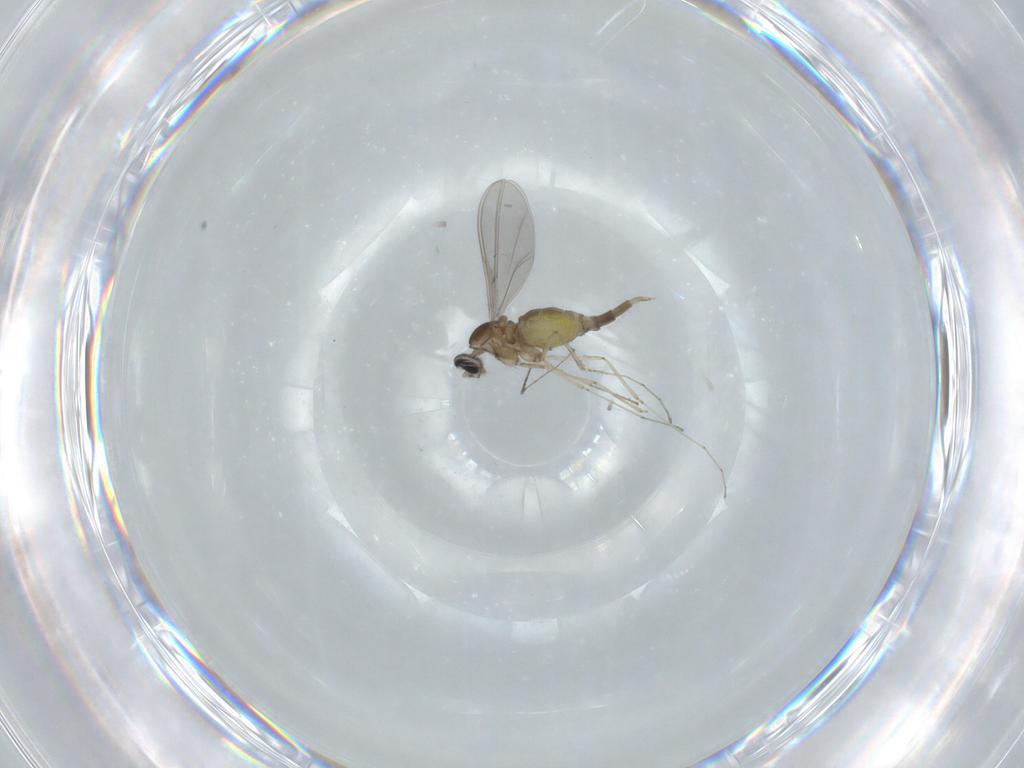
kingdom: Animalia
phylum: Arthropoda
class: Insecta
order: Diptera
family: Cecidomyiidae
